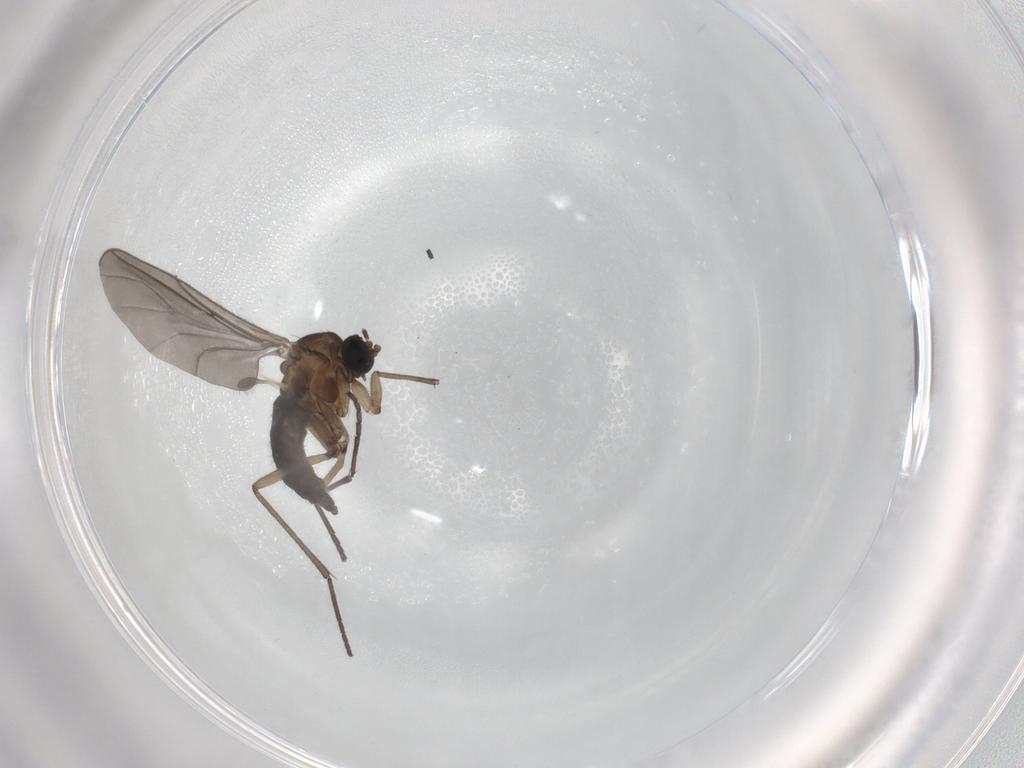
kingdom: Animalia
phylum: Arthropoda
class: Insecta
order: Diptera
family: Sciaridae
